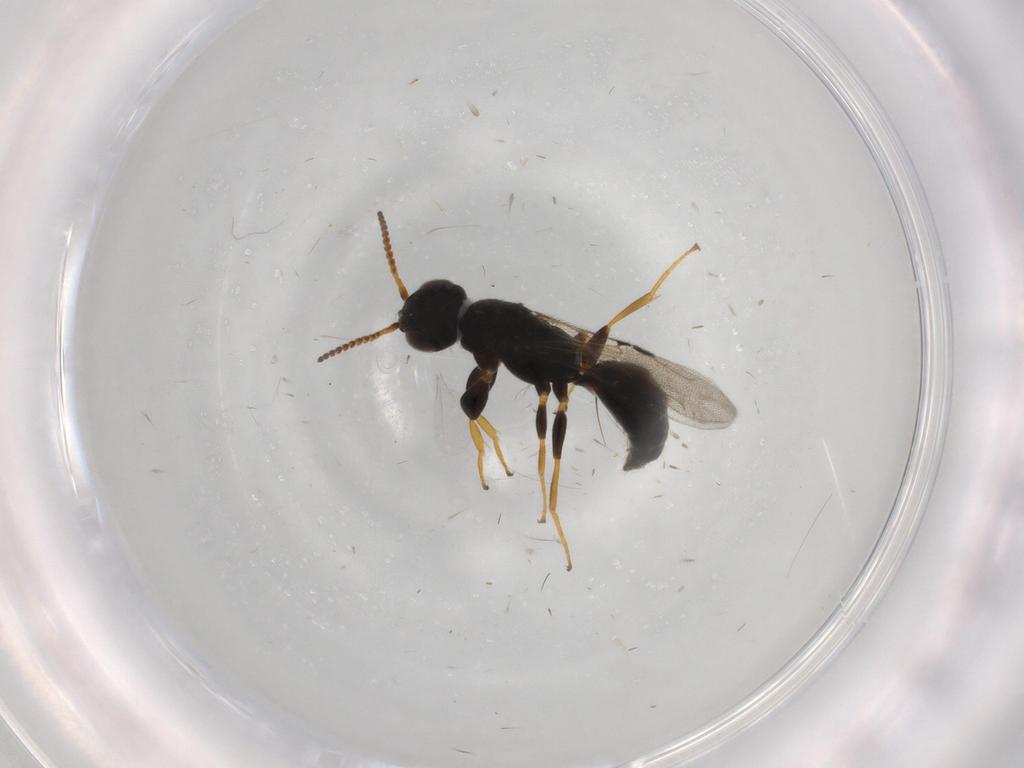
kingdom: Animalia
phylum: Arthropoda
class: Insecta
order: Hymenoptera
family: Bethylidae
